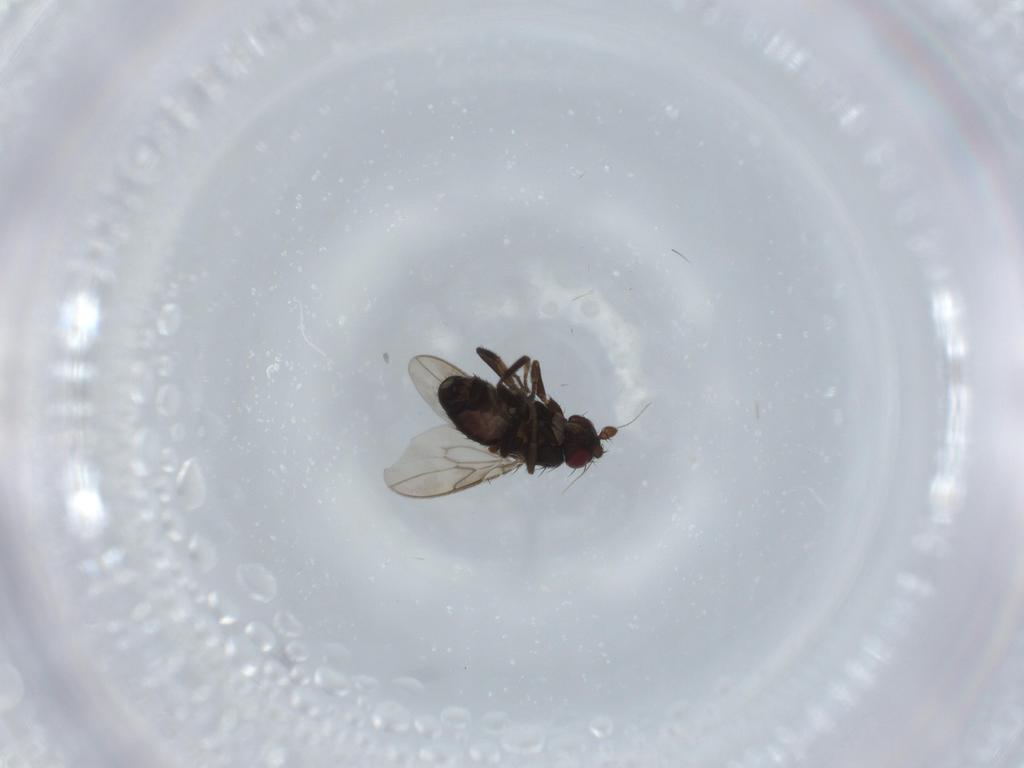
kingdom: Animalia
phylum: Arthropoda
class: Insecta
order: Diptera
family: Sphaeroceridae
